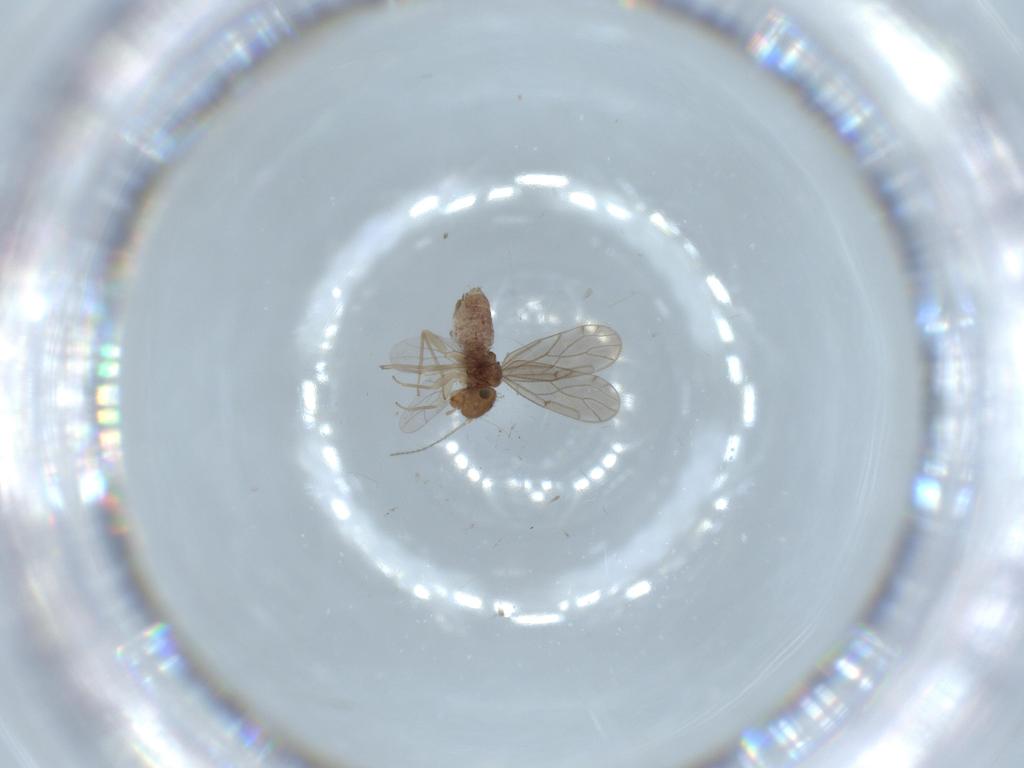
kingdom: Animalia
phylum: Arthropoda
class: Insecta
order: Psocodea
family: Ectopsocidae
